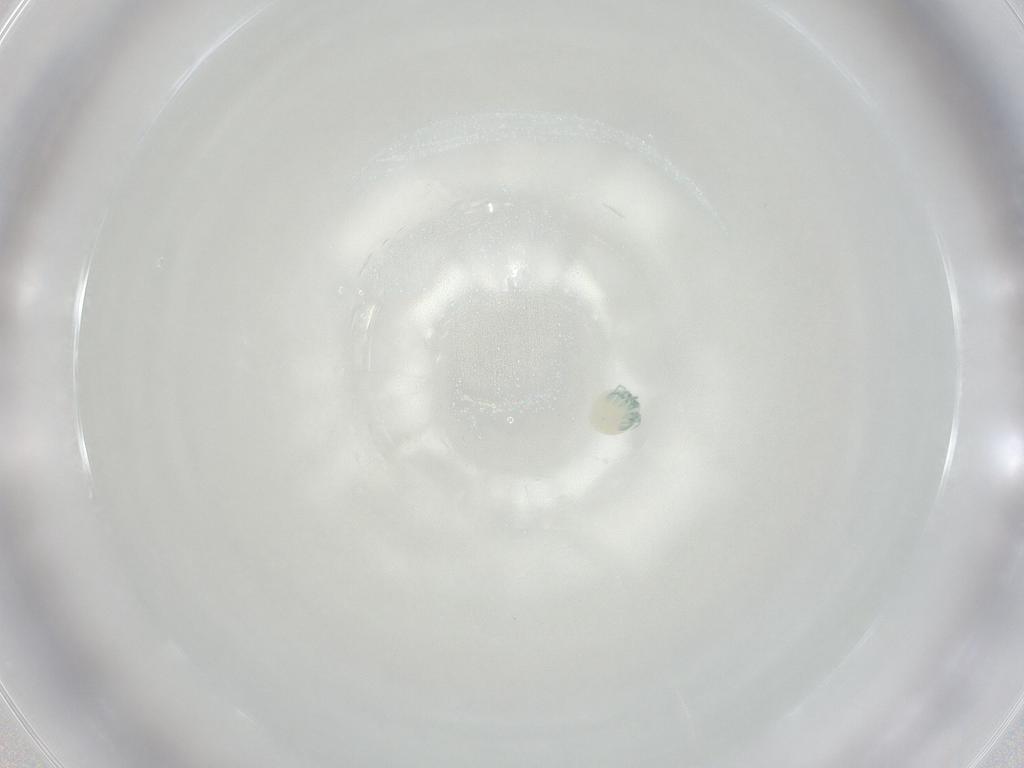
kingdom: Animalia
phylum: Arthropoda
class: Arachnida
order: Trombidiformes
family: Arrenuridae
